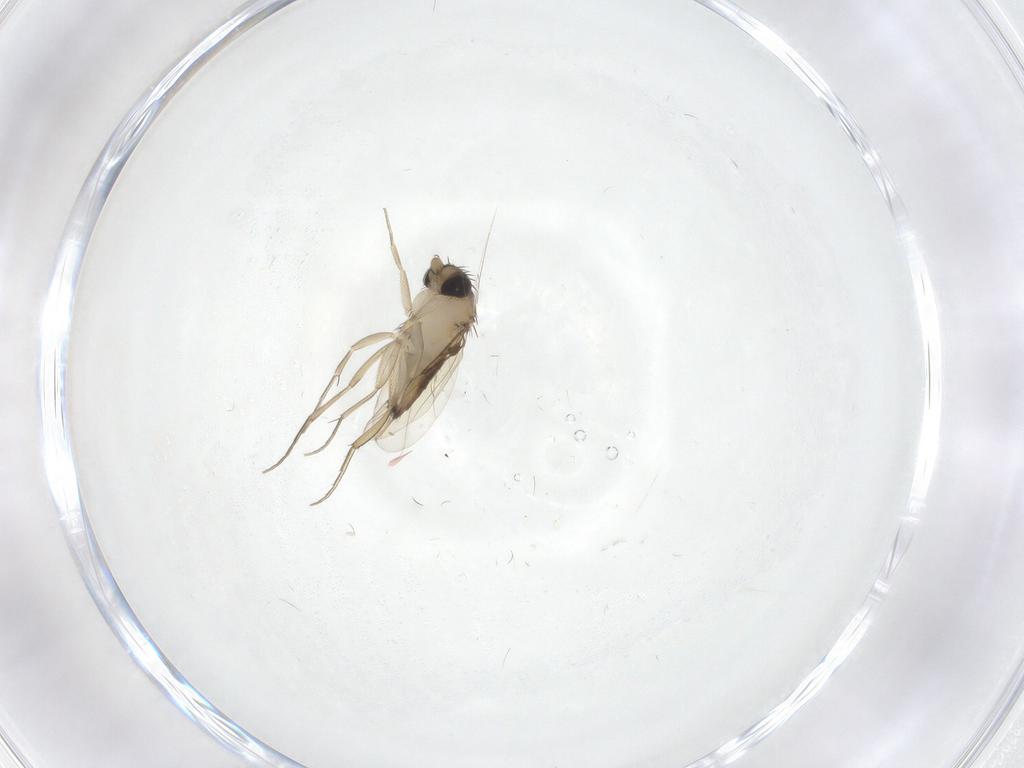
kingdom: Animalia
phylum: Arthropoda
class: Insecta
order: Diptera
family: Phoridae
